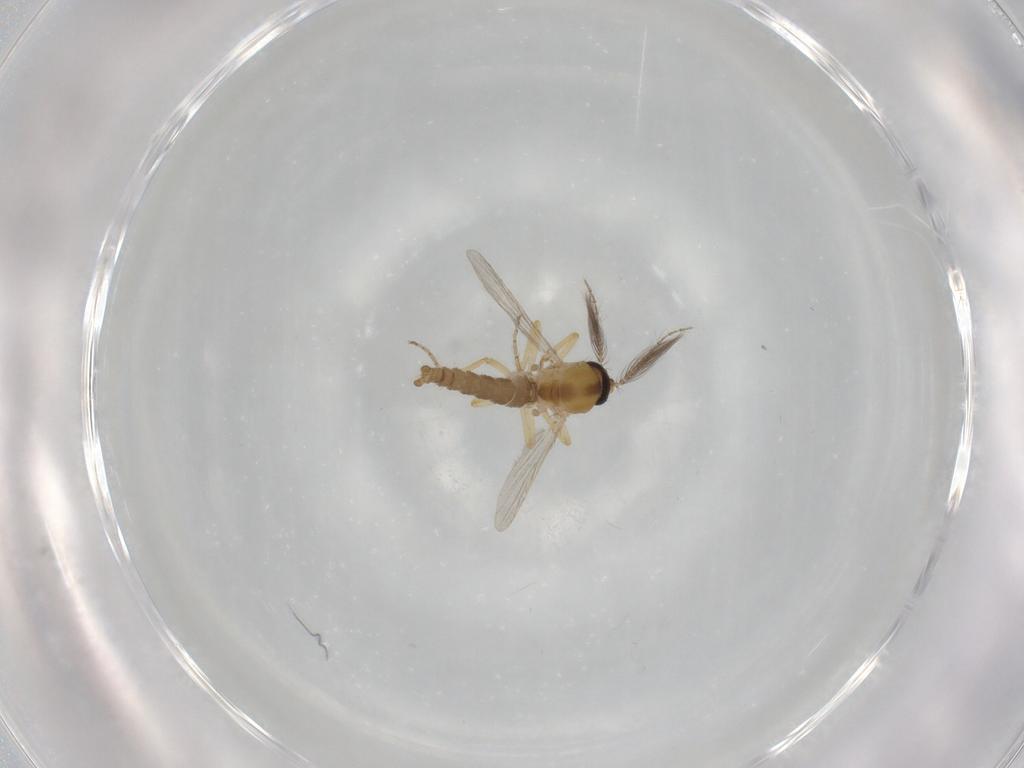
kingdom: Animalia
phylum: Arthropoda
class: Insecta
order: Diptera
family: Ceratopogonidae
